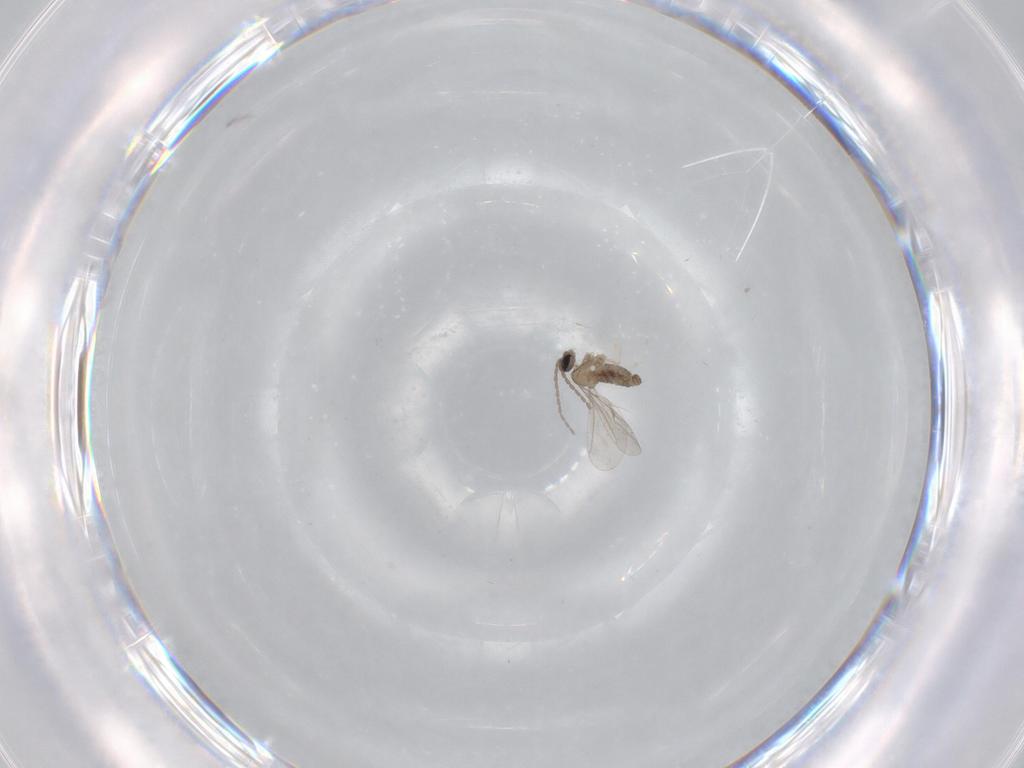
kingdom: Animalia
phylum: Arthropoda
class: Insecta
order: Diptera
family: Cecidomyiidae
